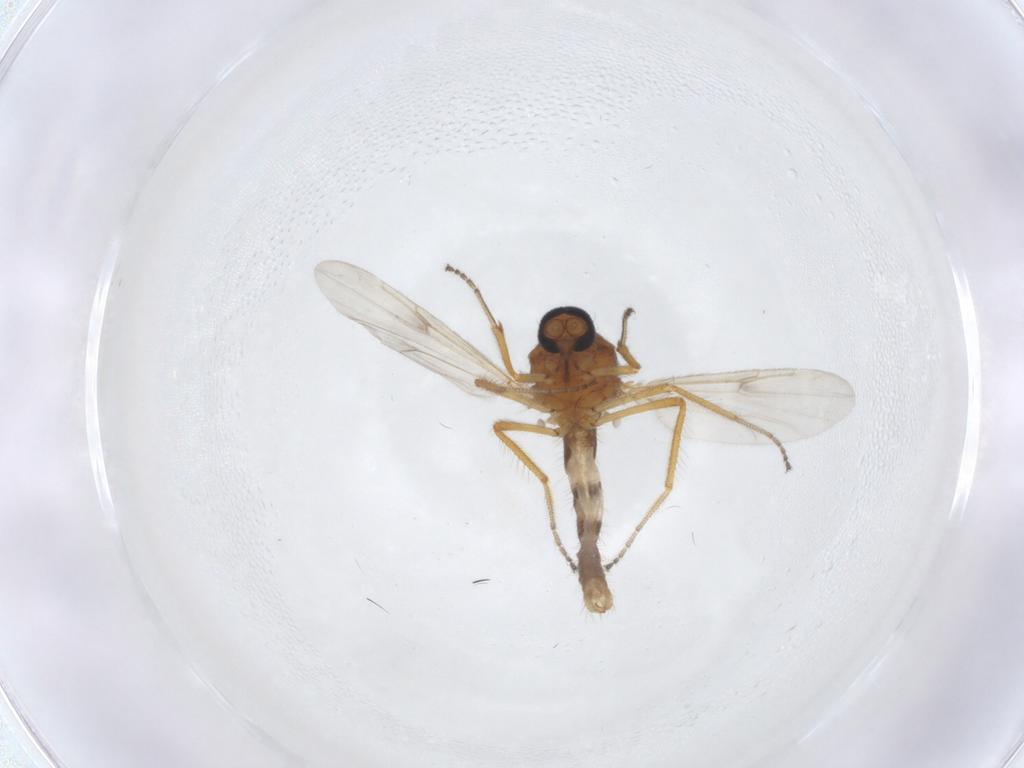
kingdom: Animalia
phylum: Arthropoda
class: Insecta
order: Diptera
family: Ceratopogonidae
